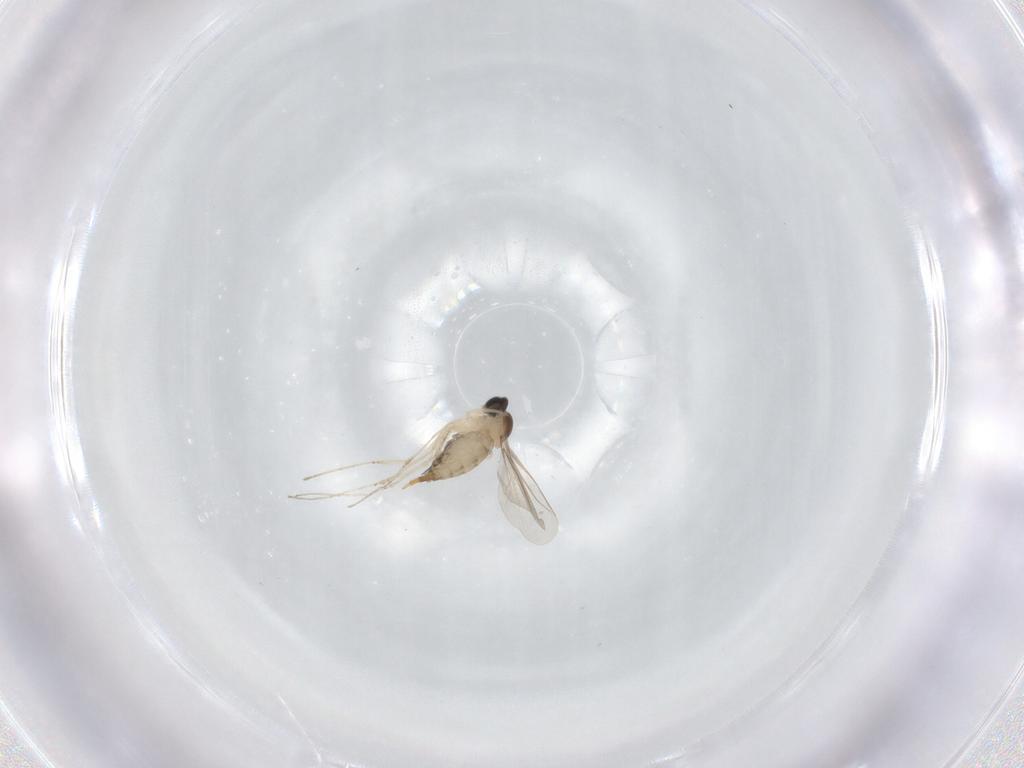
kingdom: Animalia
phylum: Arthropoda
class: Insecta
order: Diptera
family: Cecidomyiidae
